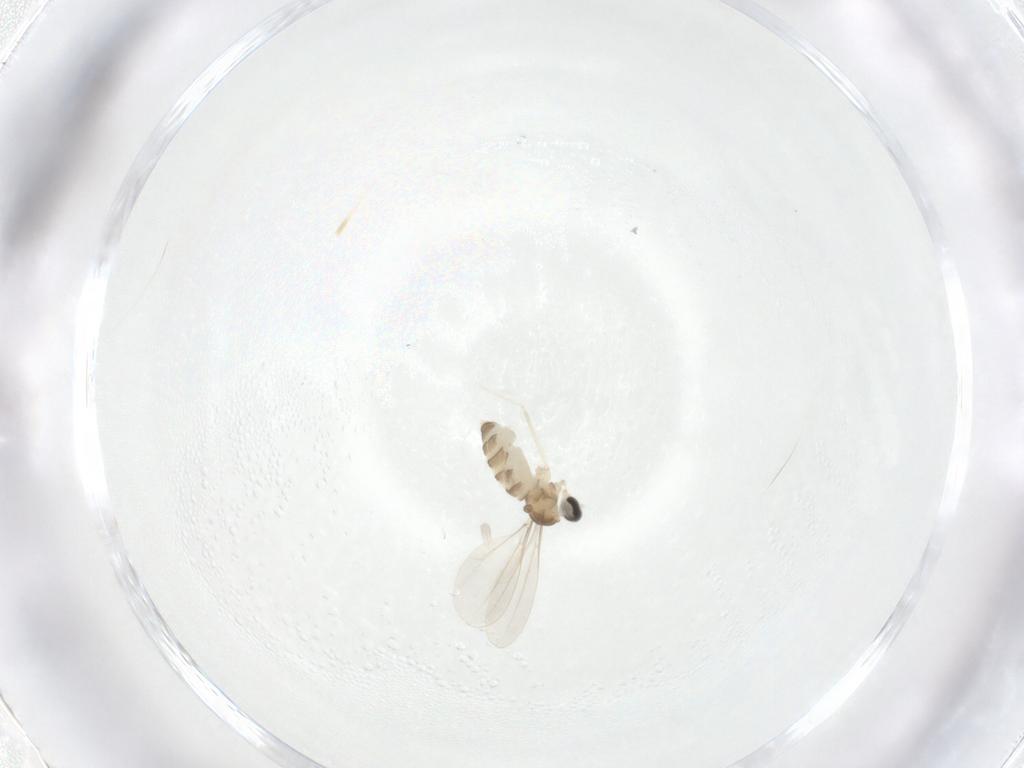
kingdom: Animalia
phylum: Arthropoda
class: Insecta
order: Diptera
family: Cecidomyiidae
